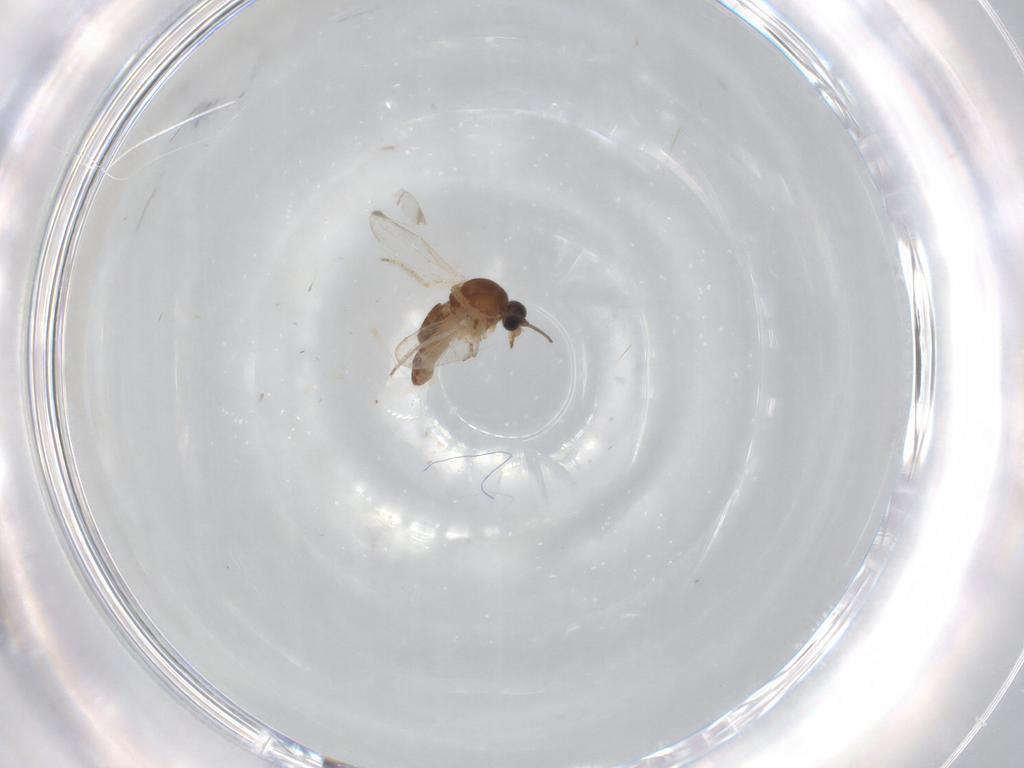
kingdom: Animalia
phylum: Arthropoda
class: Insecta
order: Diptera
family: Ceratopogonidae
